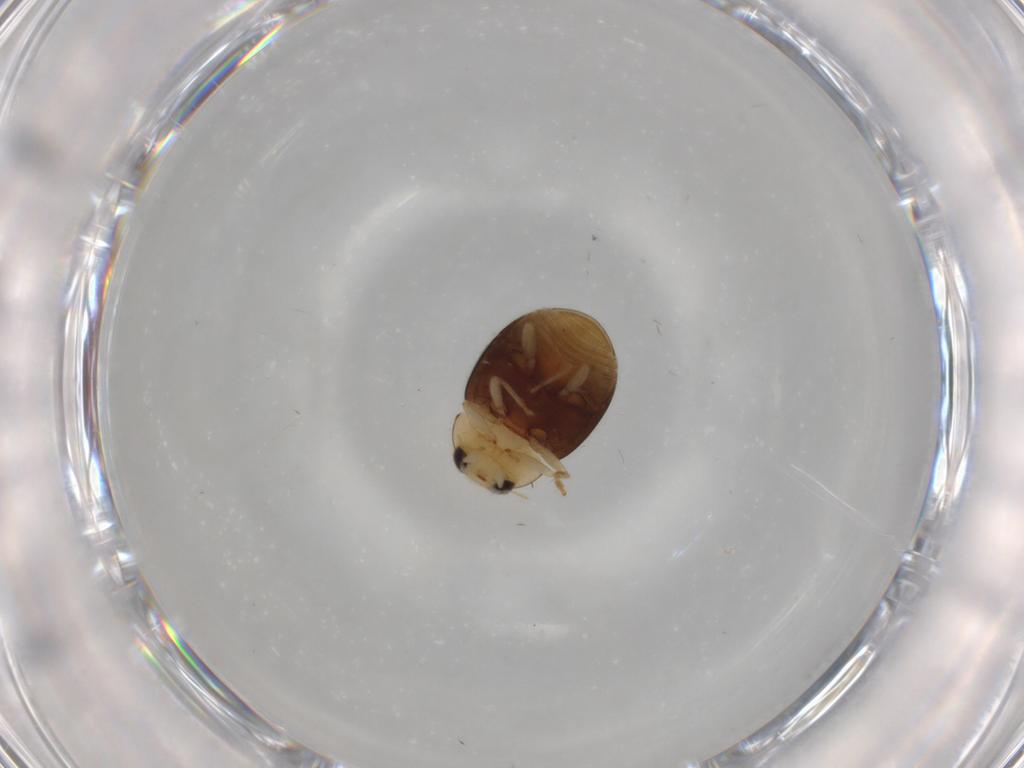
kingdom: Animalia
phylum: Arthropoda
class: Insecta
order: Coleoptera
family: Coccinellidae
